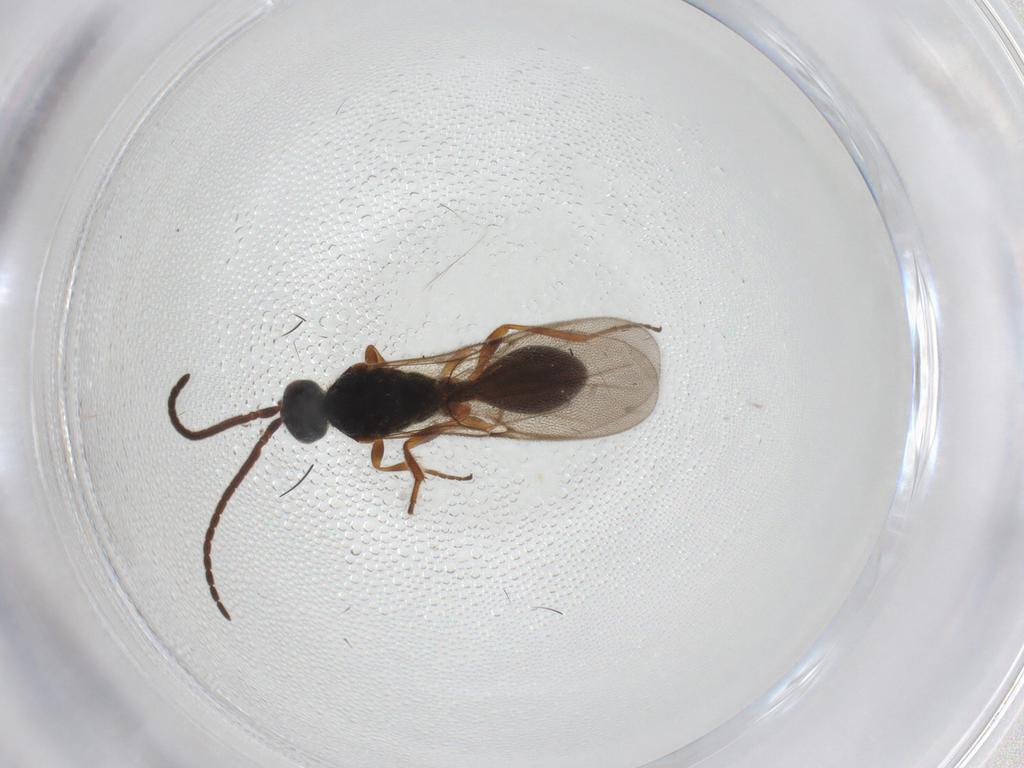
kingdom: Animalia
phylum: Arthropoda
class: Insecta
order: Hymenoptera
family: Diapriidae
